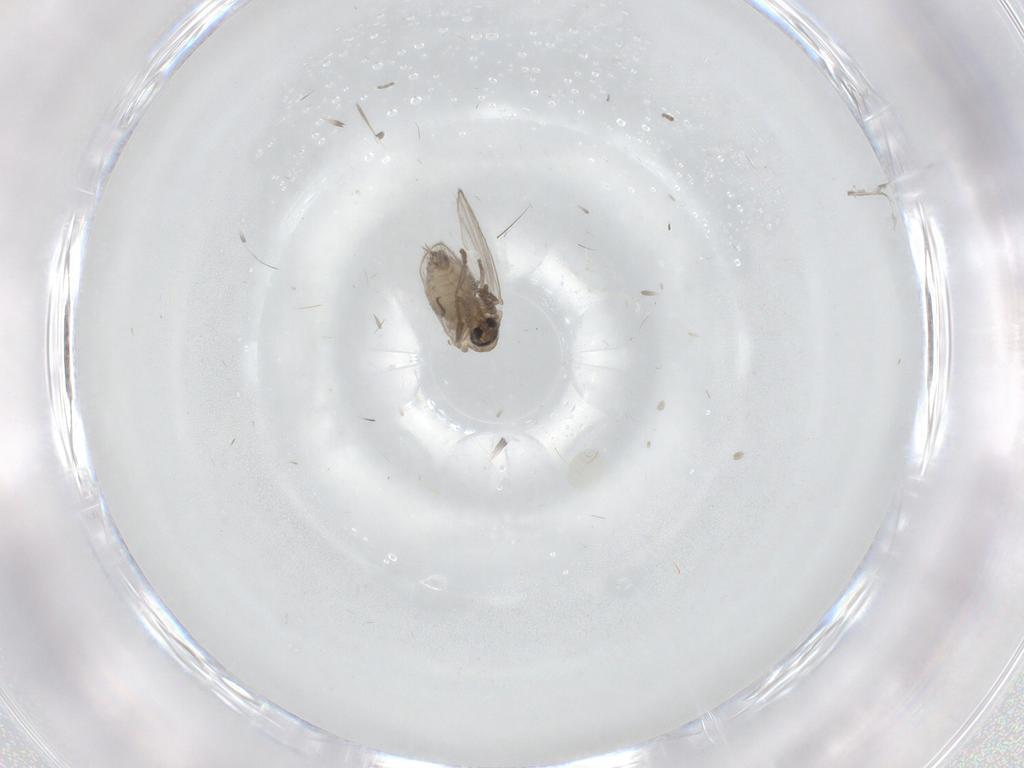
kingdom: Animalia
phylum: Arthropoda
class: Insecta
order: Diptera
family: Psychodidae
